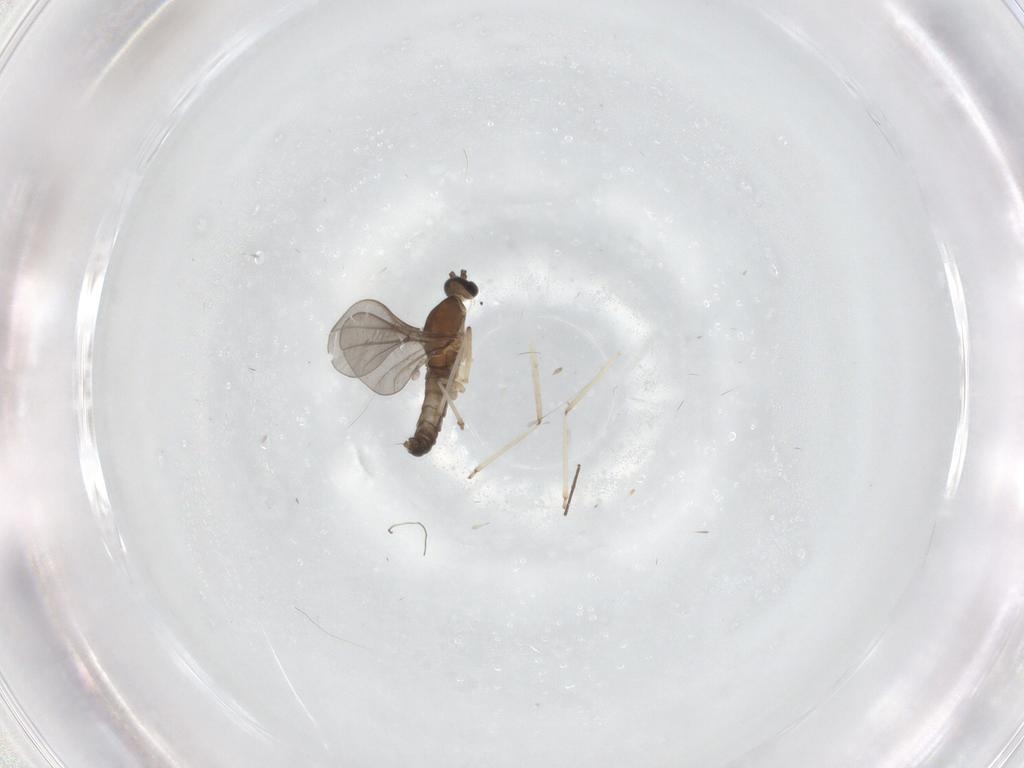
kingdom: Animalia
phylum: Arthropoda
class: Insecta
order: Diptera
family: Cecidomyiidae
